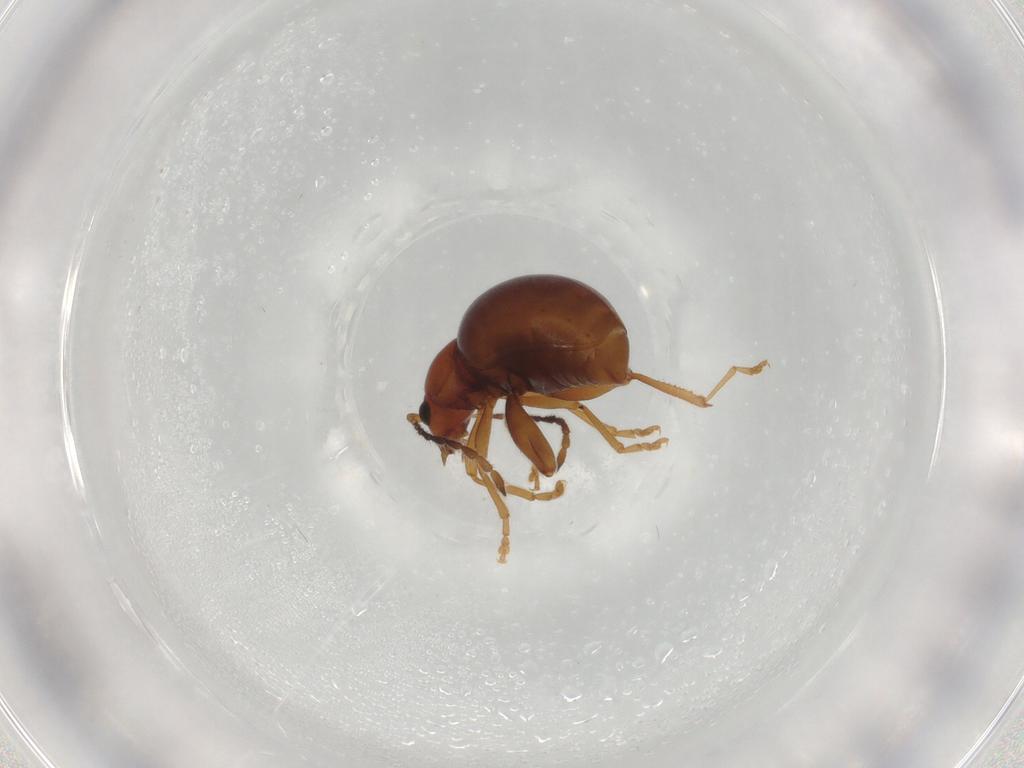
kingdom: Animalia
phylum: Arthropoda
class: Insecta
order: Coleoptera
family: Chrysomelidae
